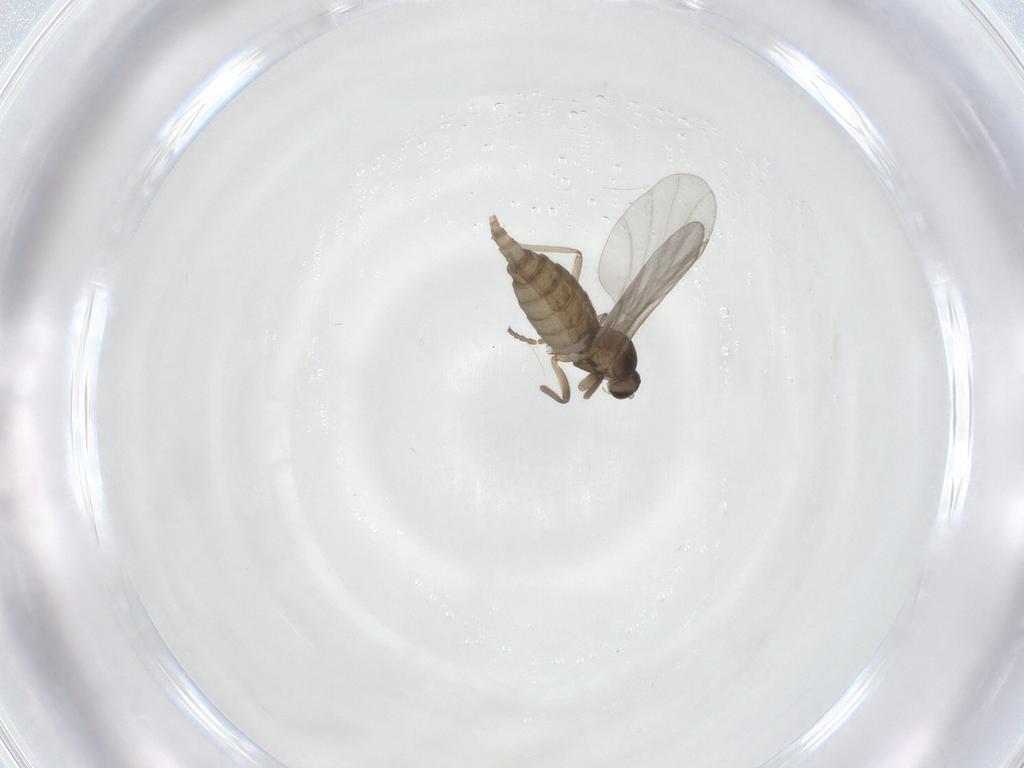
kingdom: Animalia
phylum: Arthropoda
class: Insecta
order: Diptera
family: Cecidomyiidae
